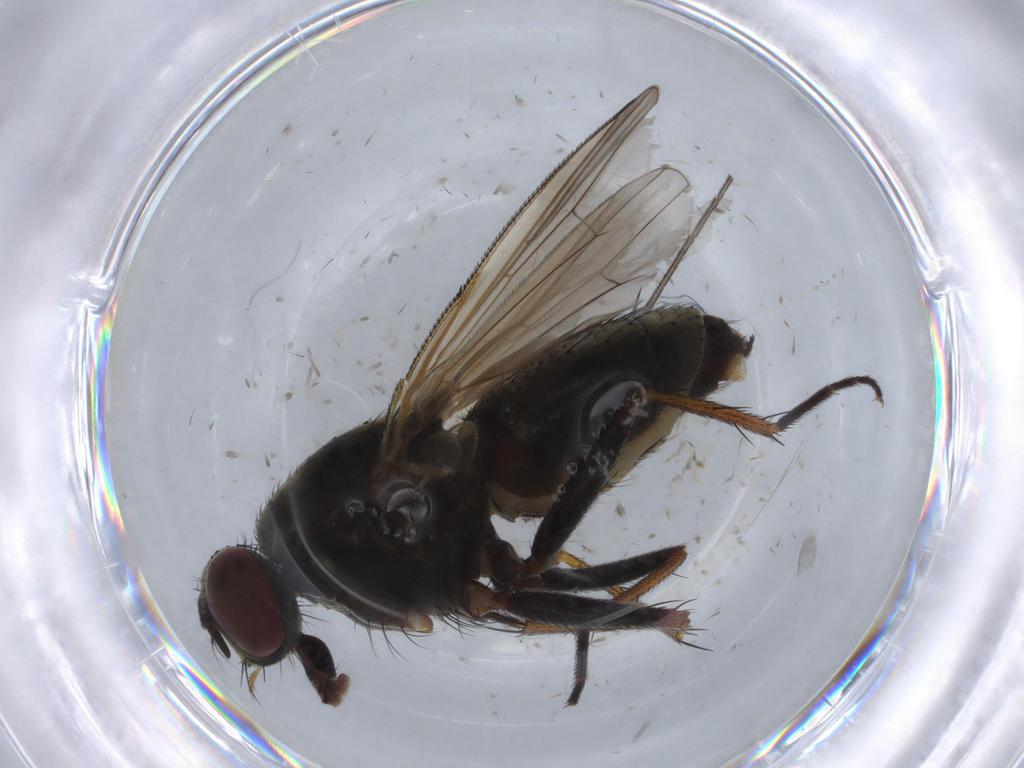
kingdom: Animalia
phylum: Arthropoda
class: Insecta
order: Diptera
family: Muscidae
